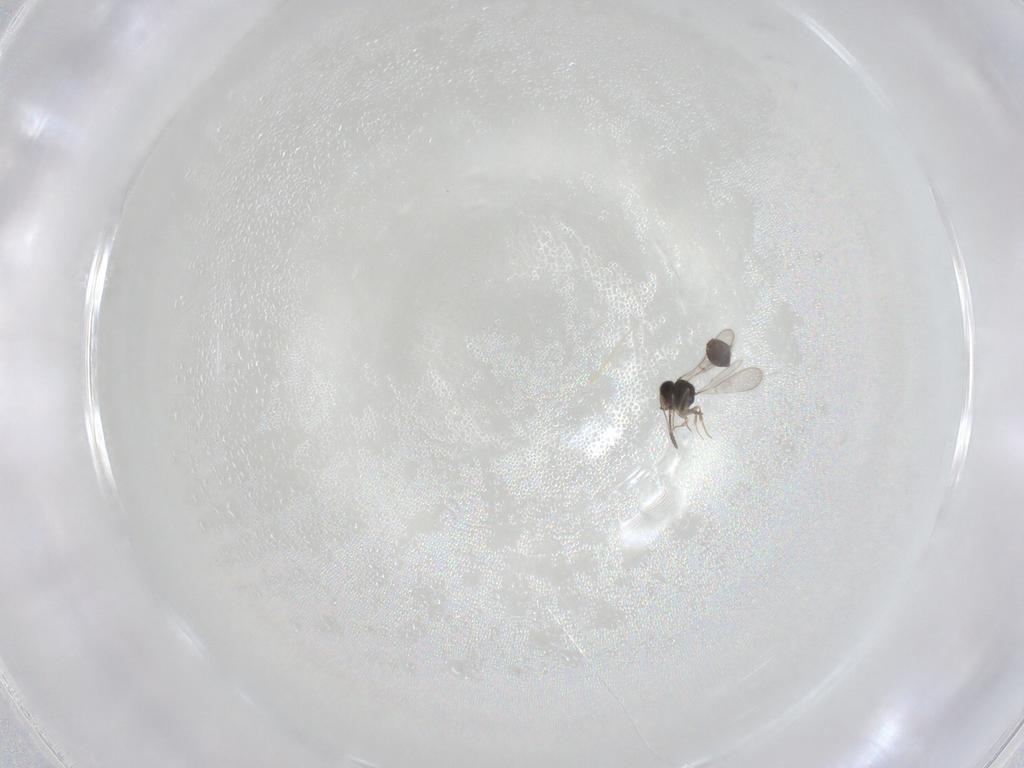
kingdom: Animalia
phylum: Arthropoda
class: Insecta
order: Hymenoptera
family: Scelionidae
